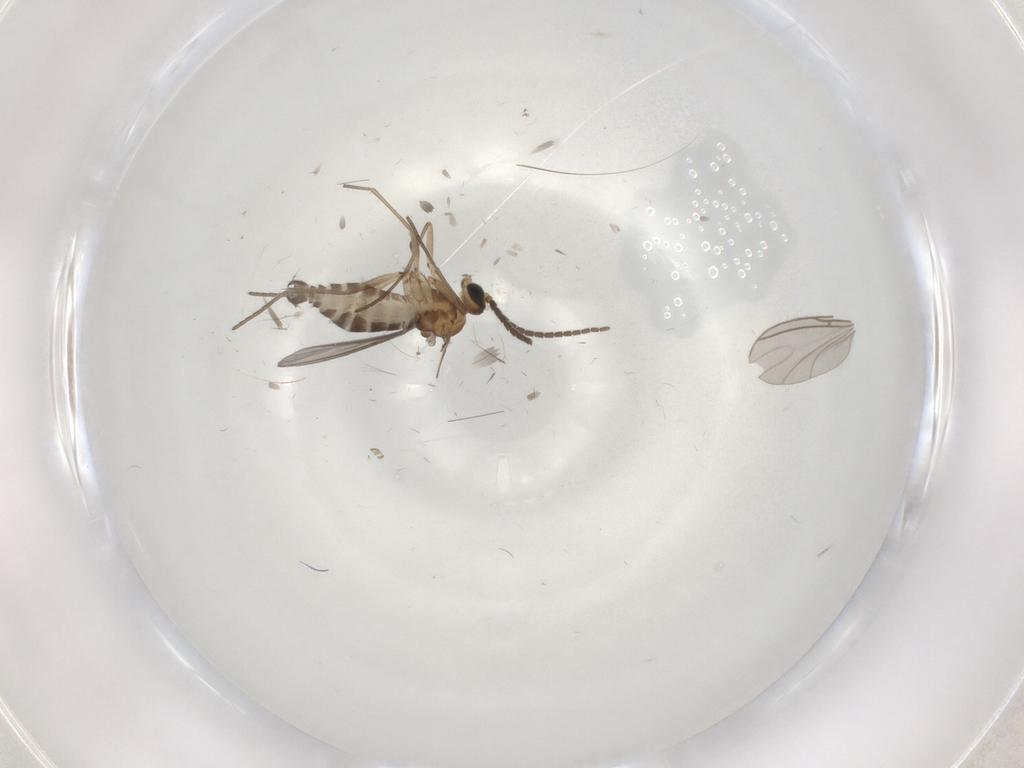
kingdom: Animalia
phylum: Arthropoda
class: Insecta
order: Diptera
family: Sciaridae
